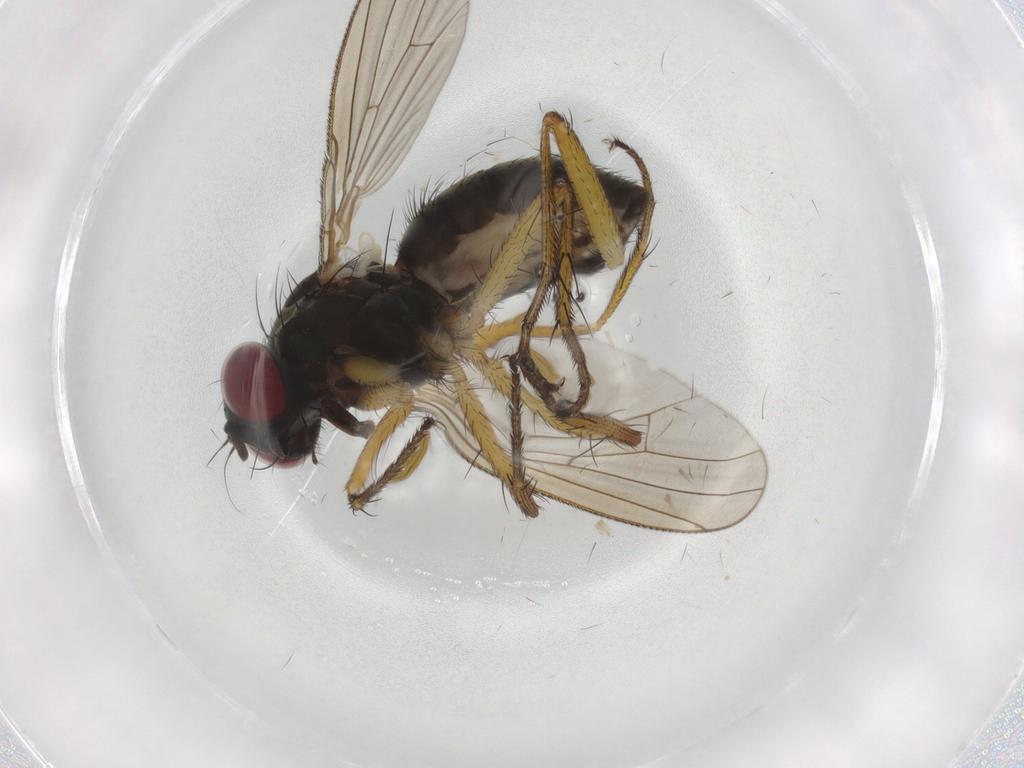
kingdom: Animalia
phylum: Arthropoda
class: Insecta
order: Diptera
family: Muscidae
